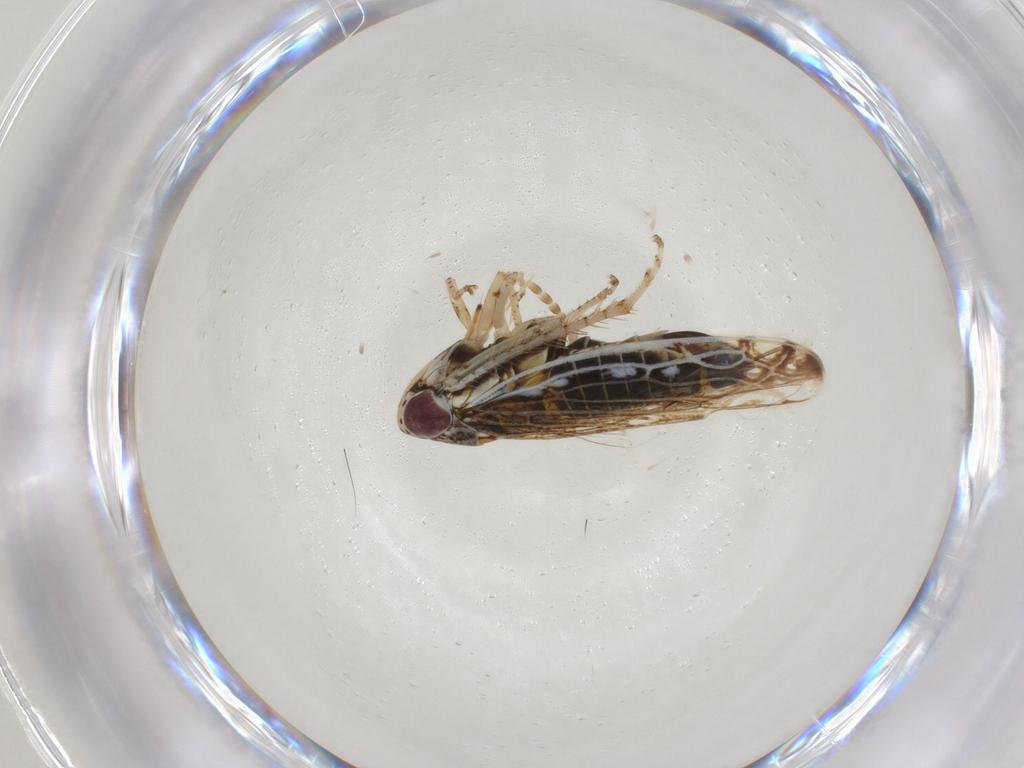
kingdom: Animalia
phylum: Arthropoda
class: Insecta
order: Hemiptera
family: Cicadellidae
